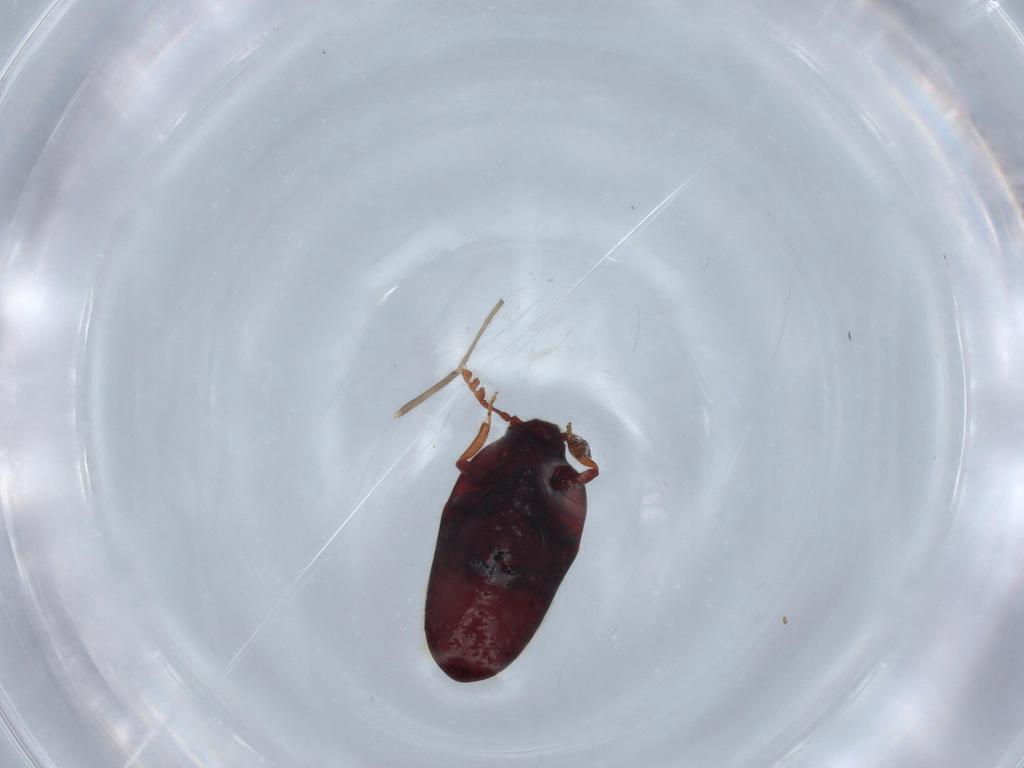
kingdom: Animalia
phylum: Arthropoda
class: Insecta
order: Coleoptera
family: Throscidae
